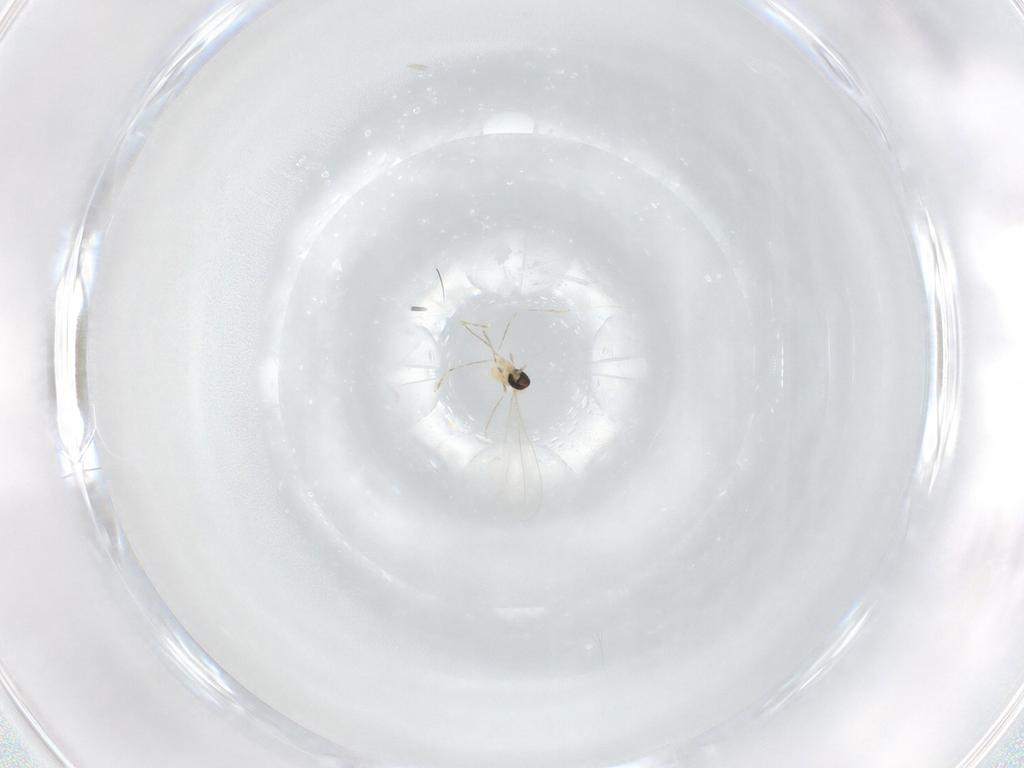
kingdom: Animalia
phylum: Arthropoda
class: Insecta
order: Diptera
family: Cecidomyiidae
